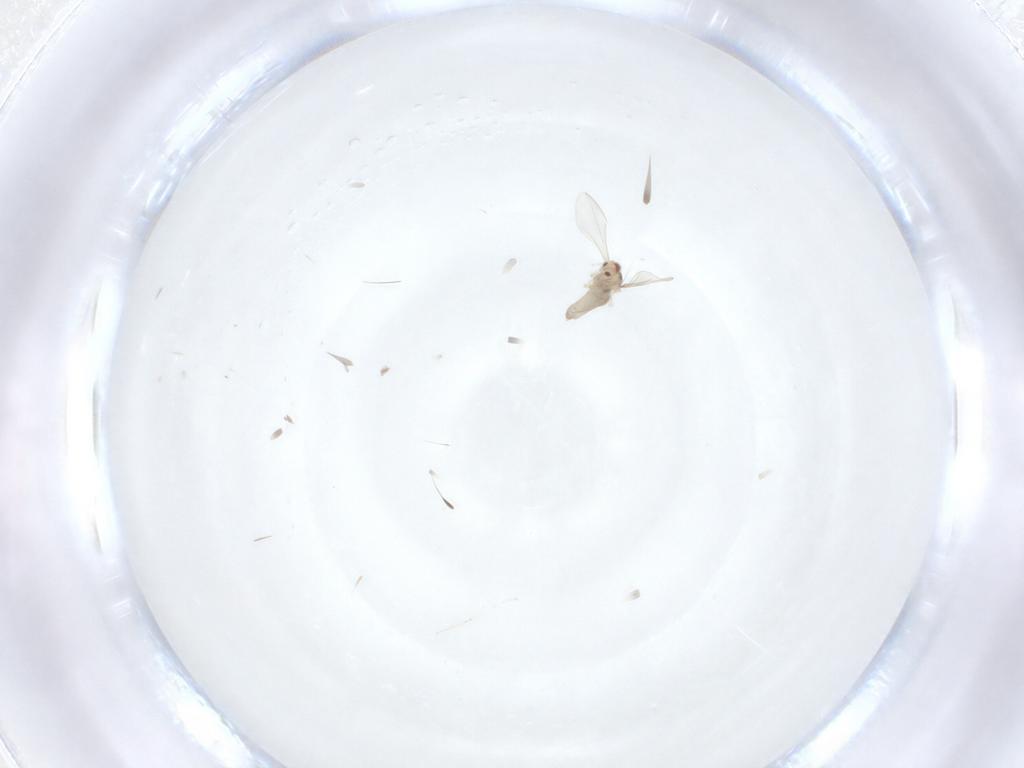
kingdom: Animalia
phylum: Arthropoda
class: Insecta
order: Diptera
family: Cecidomyiidae
